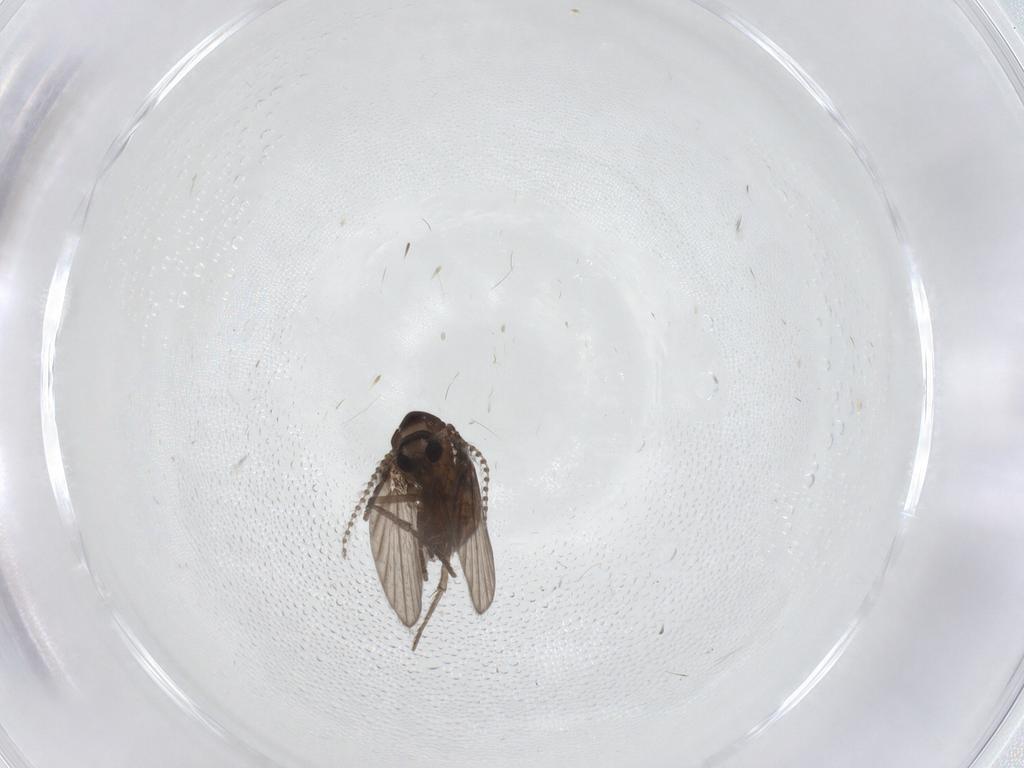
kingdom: Animalia
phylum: Arthropoda
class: Insecta
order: Diptera
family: Psychodidae
